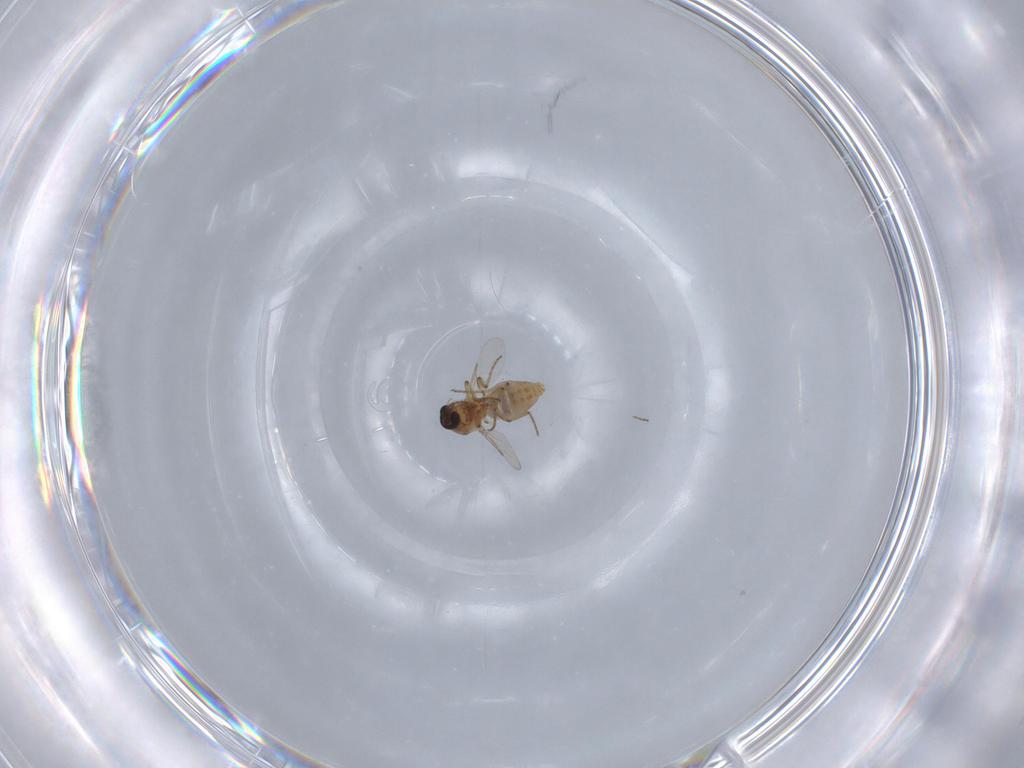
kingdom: Animalia
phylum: Arthropoda
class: Insecta
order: Diptera
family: Ceratopogonidae
